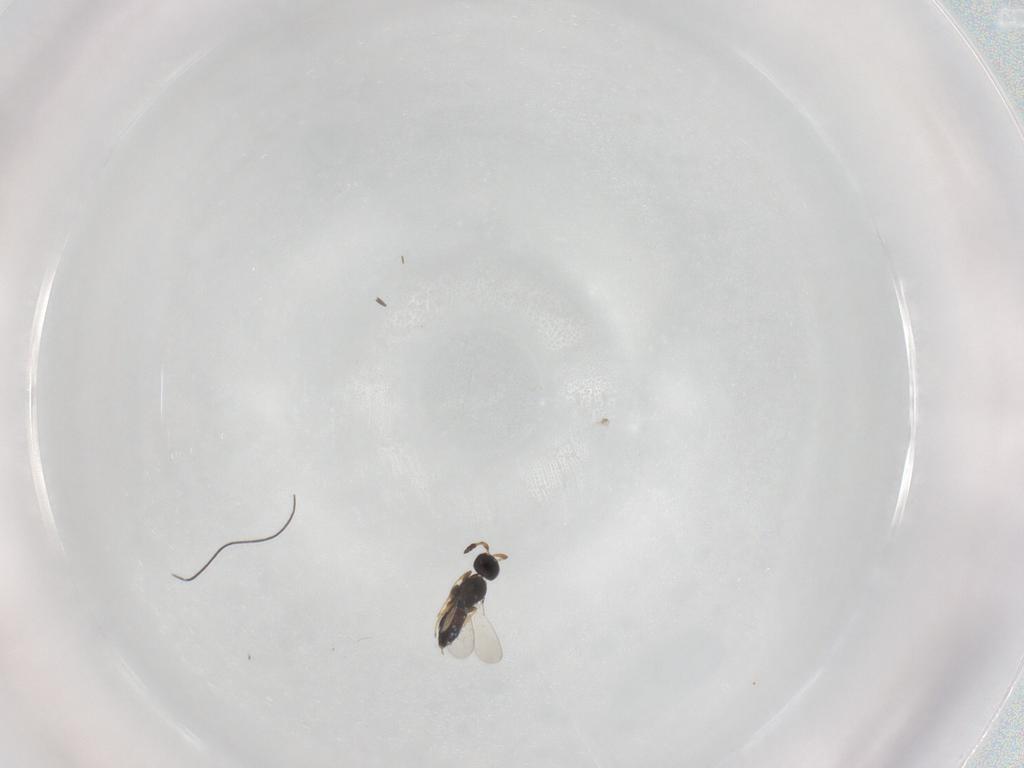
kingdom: Animalia
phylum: Arthropoda
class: Insecta
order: Hymenoptera
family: Platygastridae
